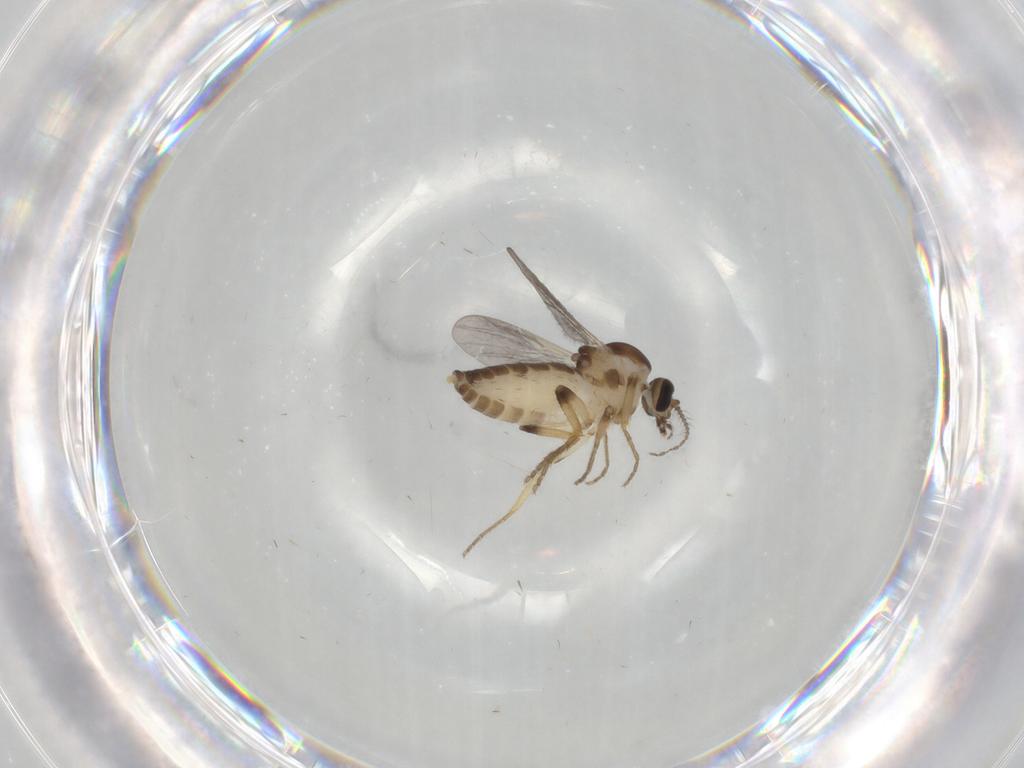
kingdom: Animalia
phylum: Arthropoda
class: Insecta
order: Diptera
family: Ceratopogonidae
